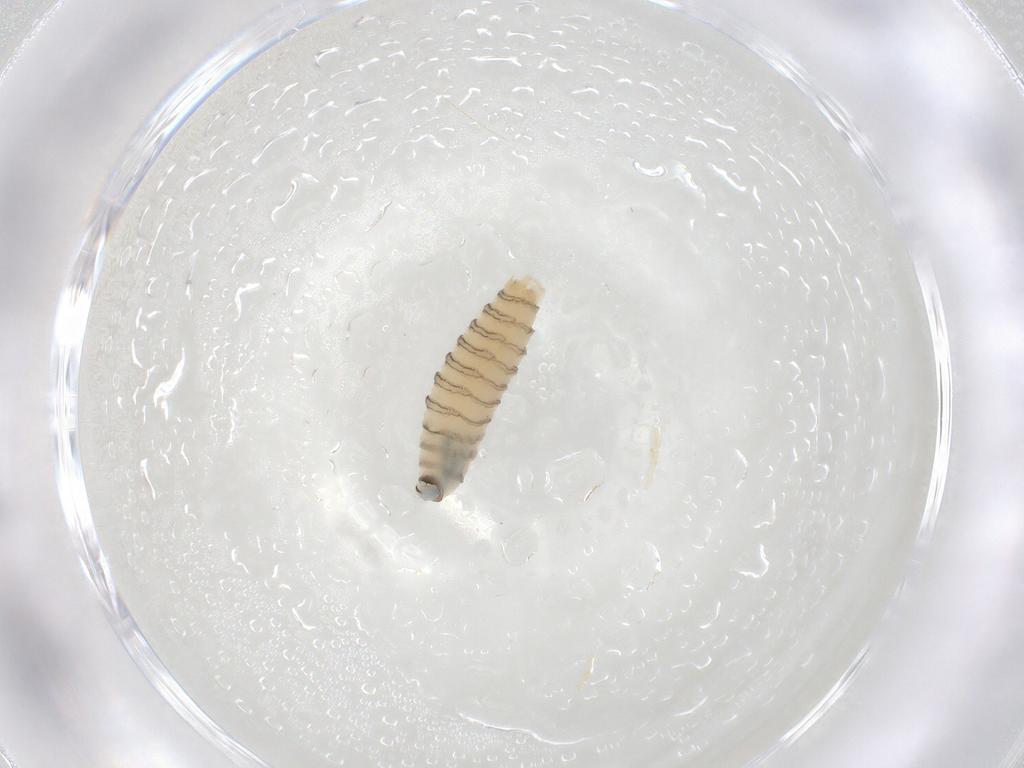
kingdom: Animalia
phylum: Arthropoda
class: Insecta
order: Diptera
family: Sarcophagidae
